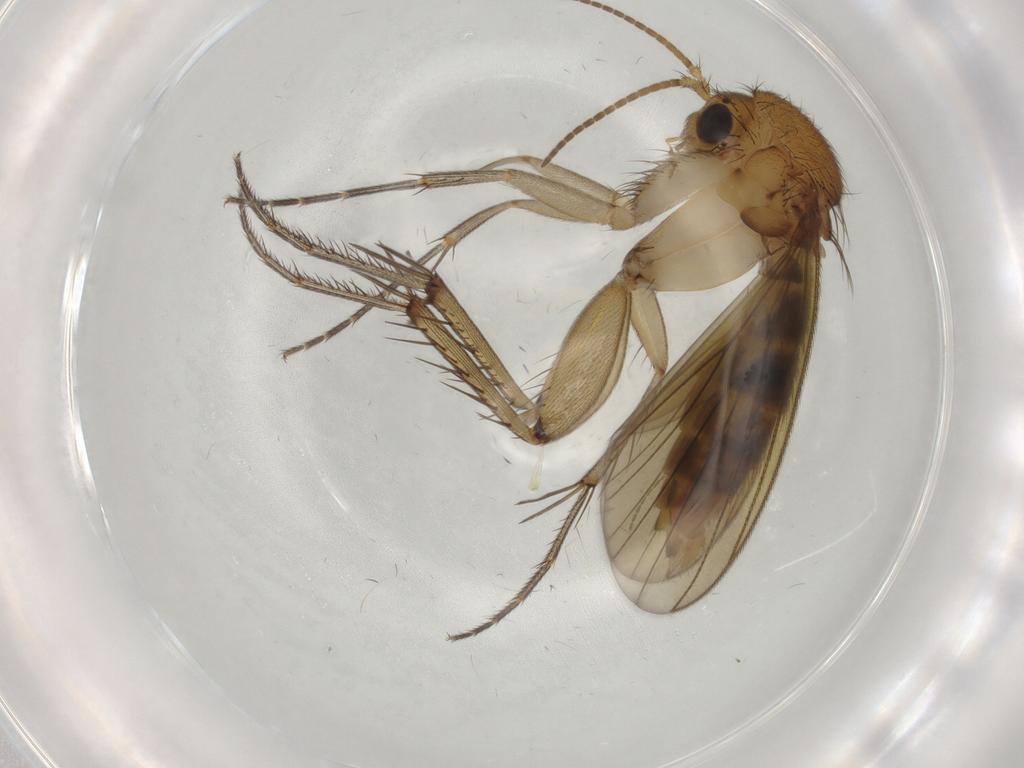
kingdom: Animalia
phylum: Arthropoda
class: Insecta
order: Diptera
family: Mycetophilidae
